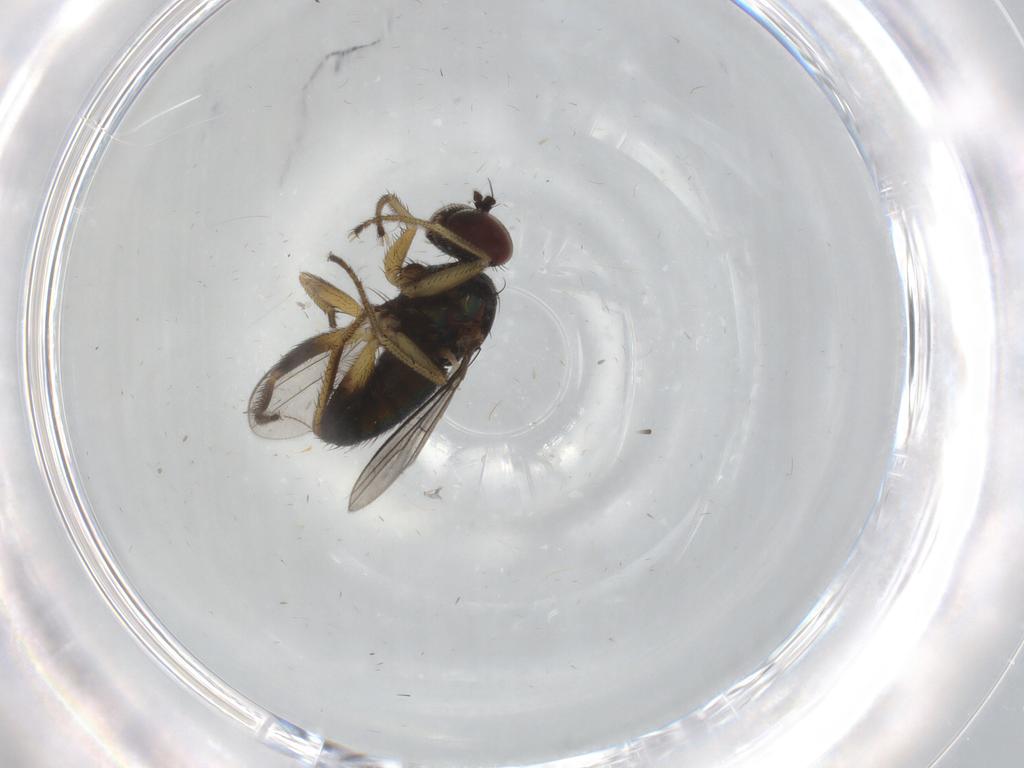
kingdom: Animalia
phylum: Arthropoda
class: Insecta
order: Diptera
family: Dolichopodidae
